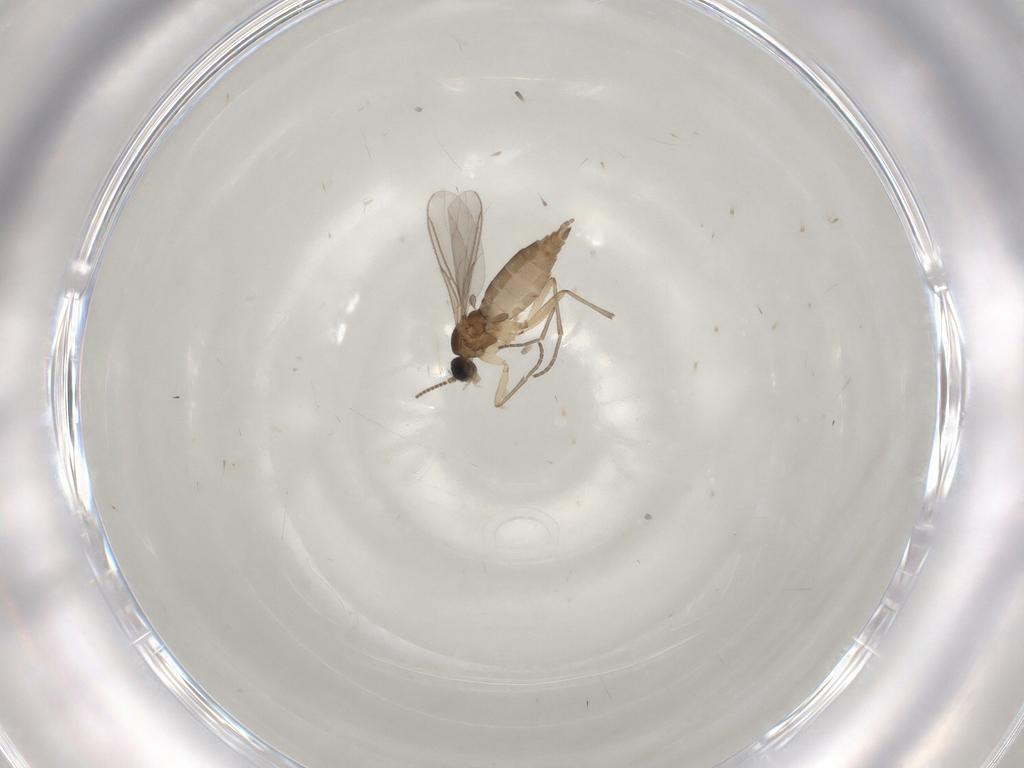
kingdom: Animalia
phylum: Arthropoda
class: Insecta
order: Diptera
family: Sciaridae
